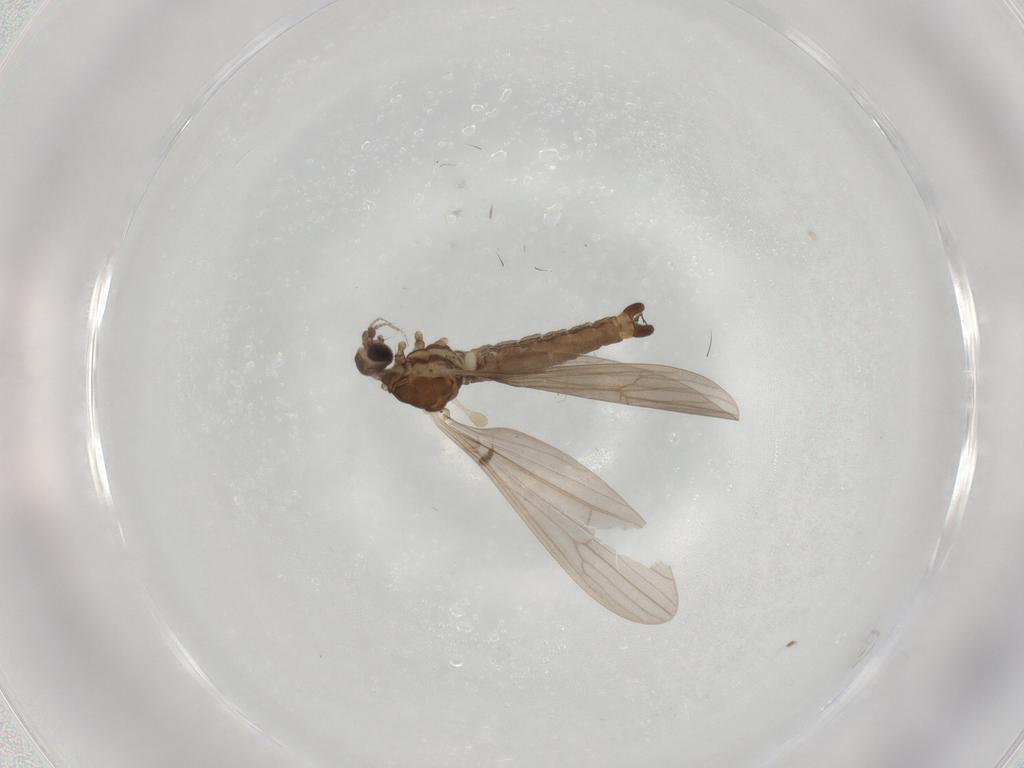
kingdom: Animalia
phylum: Arthropoda
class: Insecta
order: Diptera
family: Limoniidae
